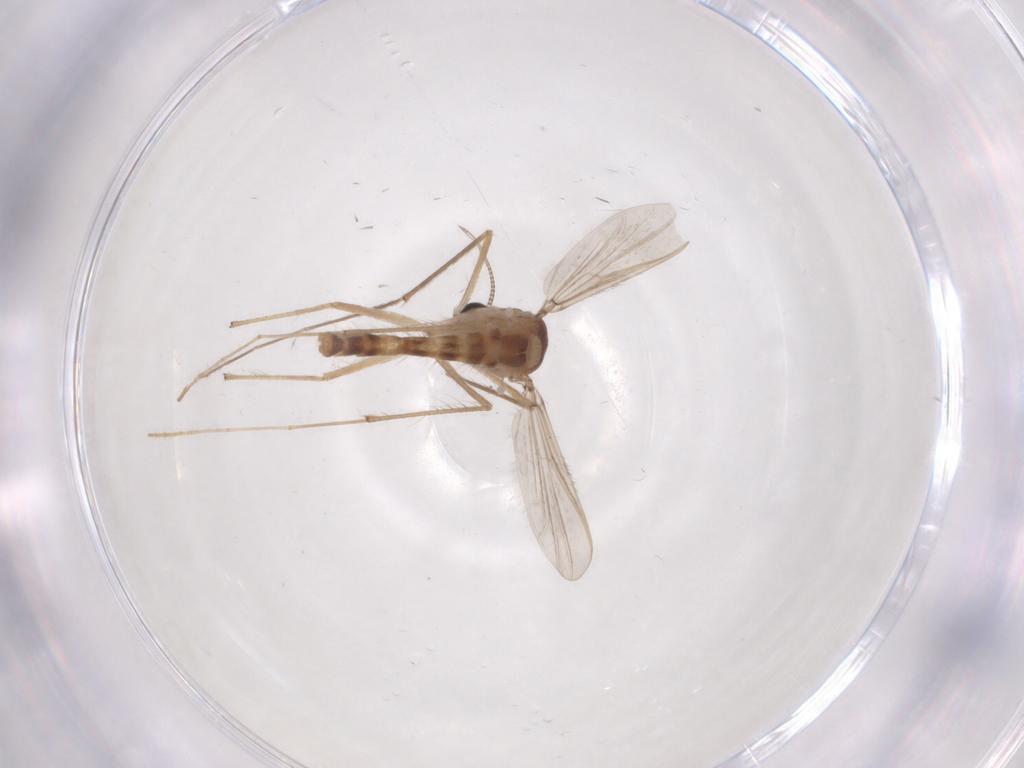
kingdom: Animalia
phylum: Arthropoda
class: Insecta
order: Diptera
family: Chironomidae
